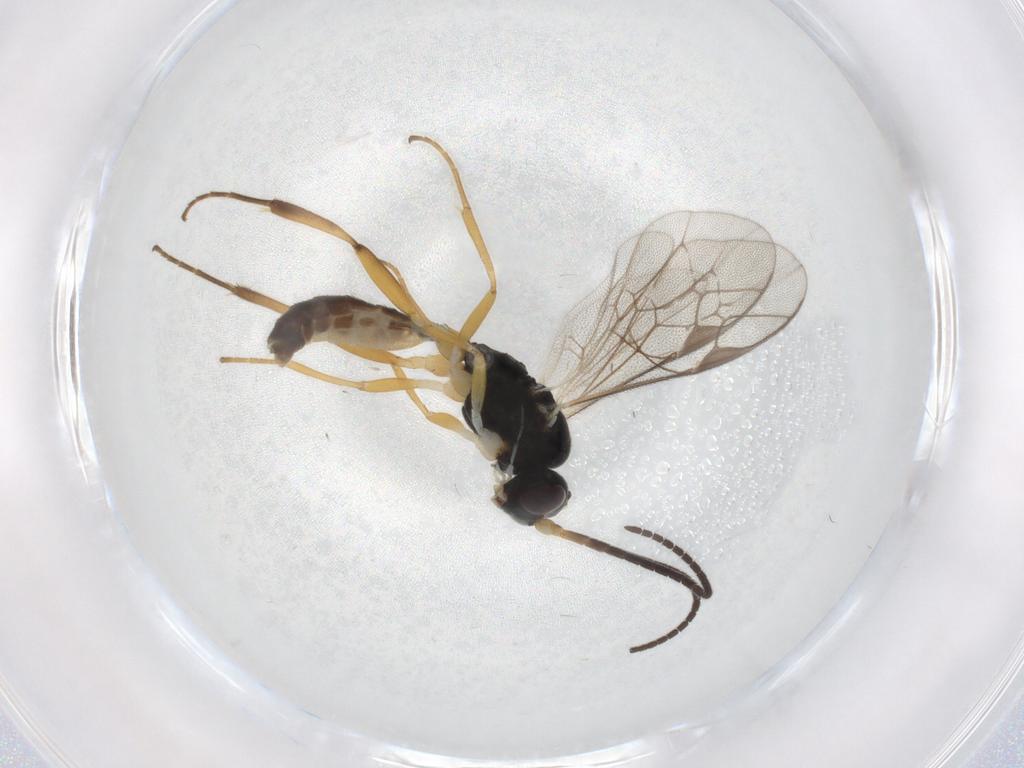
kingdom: Animalia
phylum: Arthropoda
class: Insecta
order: Hymenoptera
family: Ichneumonidae
